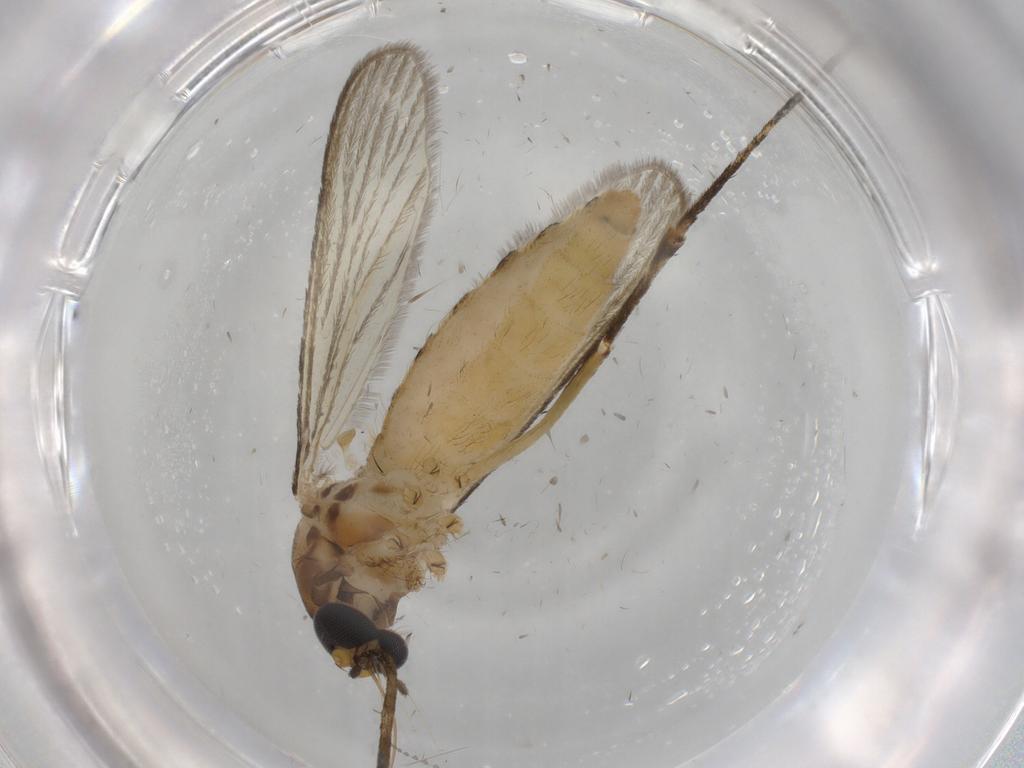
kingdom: Animalia
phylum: Arthropoda
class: Insecta
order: Diptera
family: Culicidae
